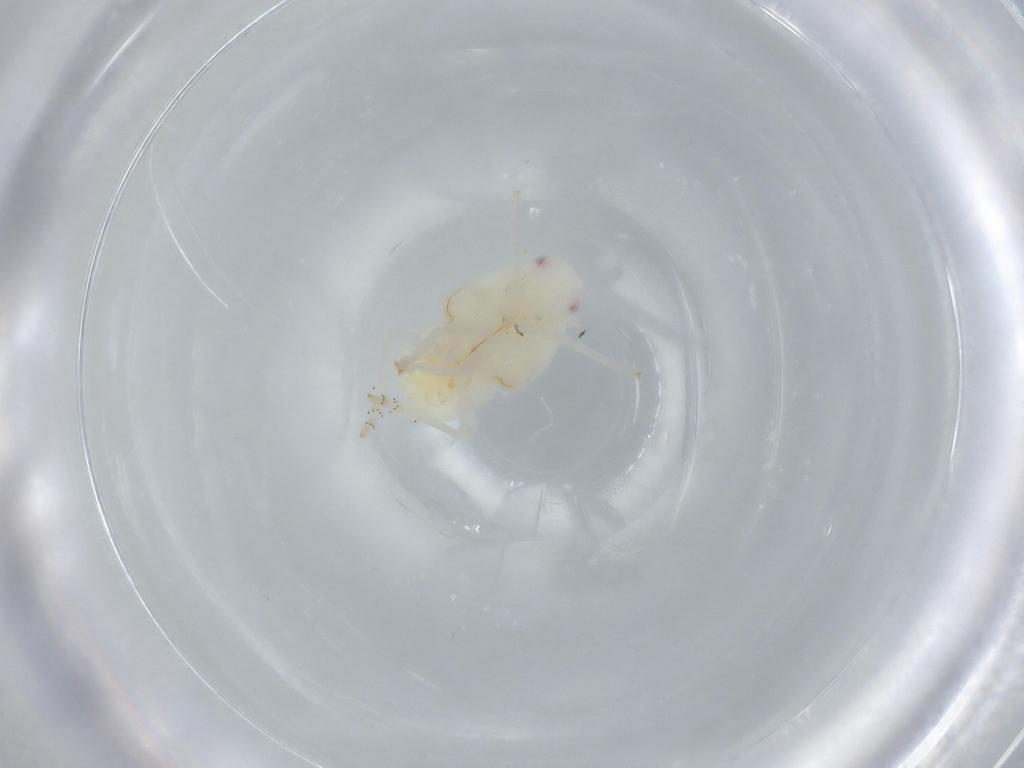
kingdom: Animalia
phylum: Arthropoda
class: Insecta
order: Hemiptera
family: Flatidae
